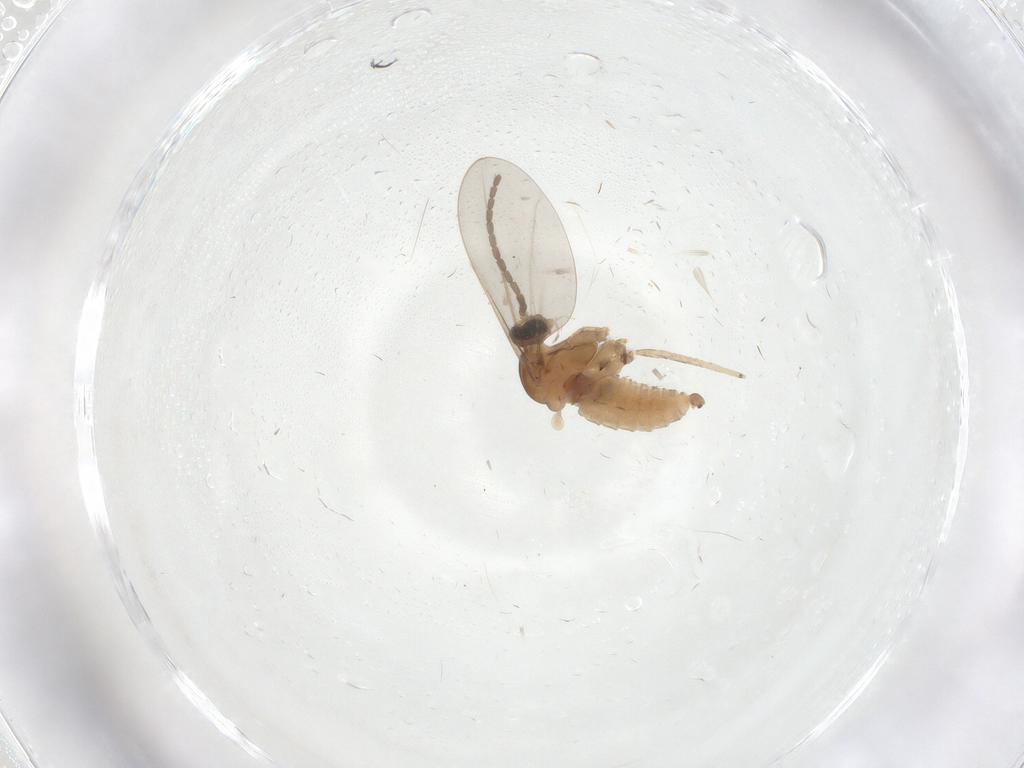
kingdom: Animalia
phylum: Arthropoda
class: Insecta
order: Diptera
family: Cecidomyiidae
